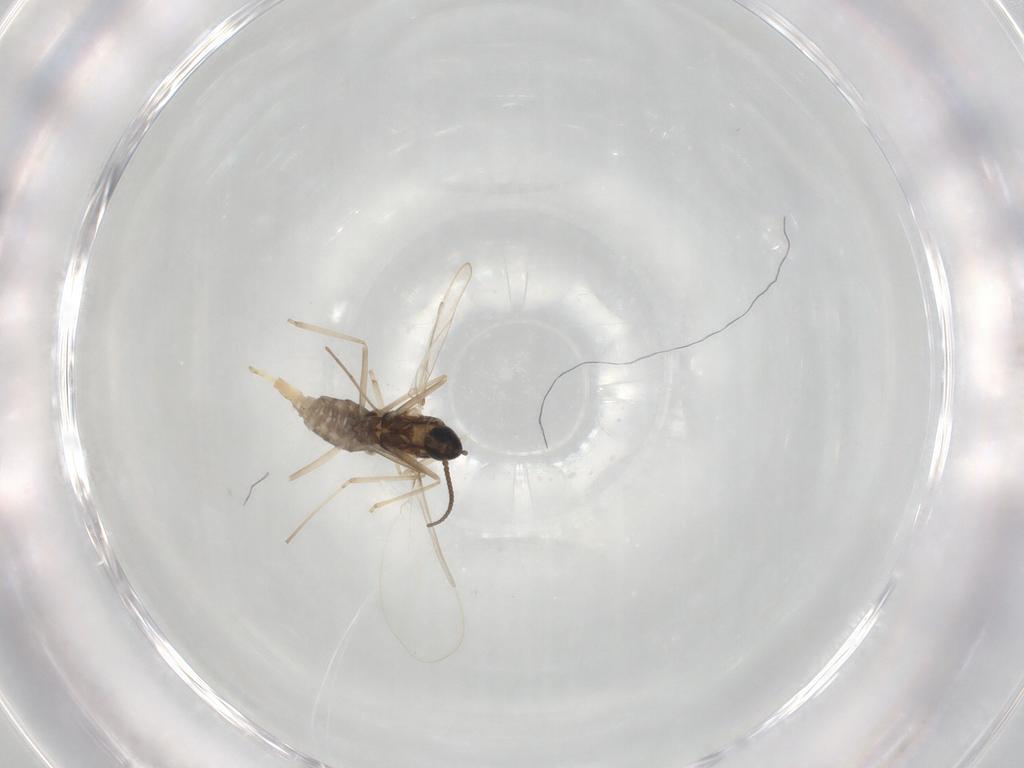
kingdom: Animalia
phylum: Arthropoda
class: Insecta
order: Diptera
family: Cecidomyiidae
